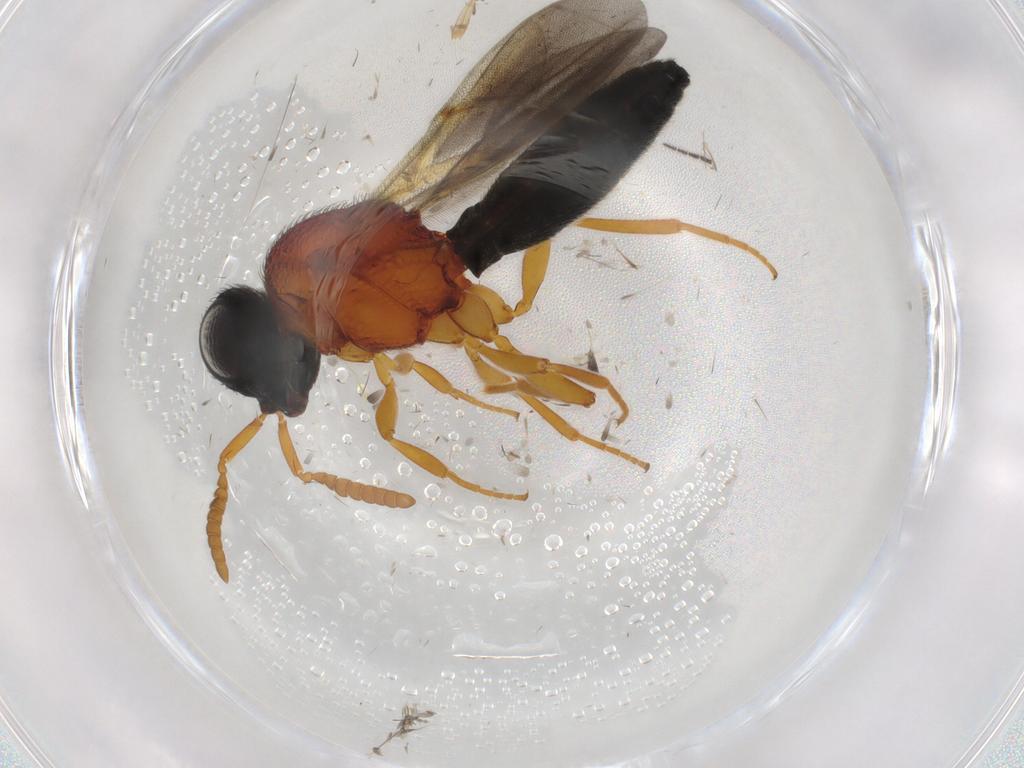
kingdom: Animalia
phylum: Arthropoda
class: Insecta
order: Hymenoptera
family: Scelionidae
